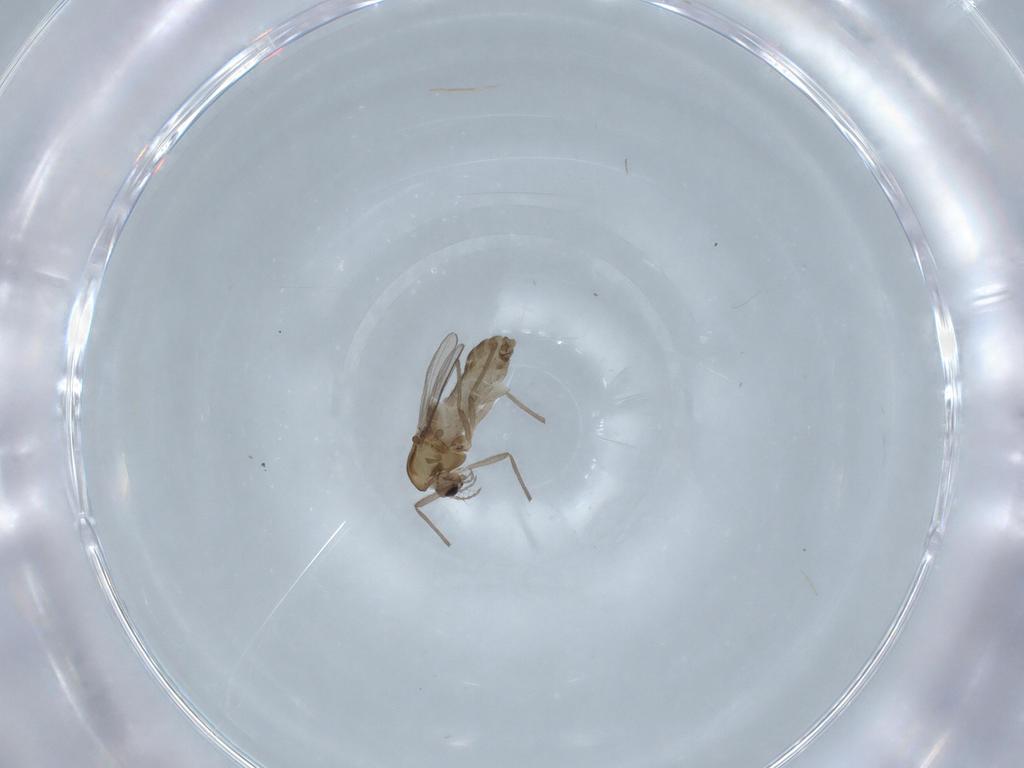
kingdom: Animalia
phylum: Arthropoda
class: Insecta
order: Diptera
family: Chironomidae
